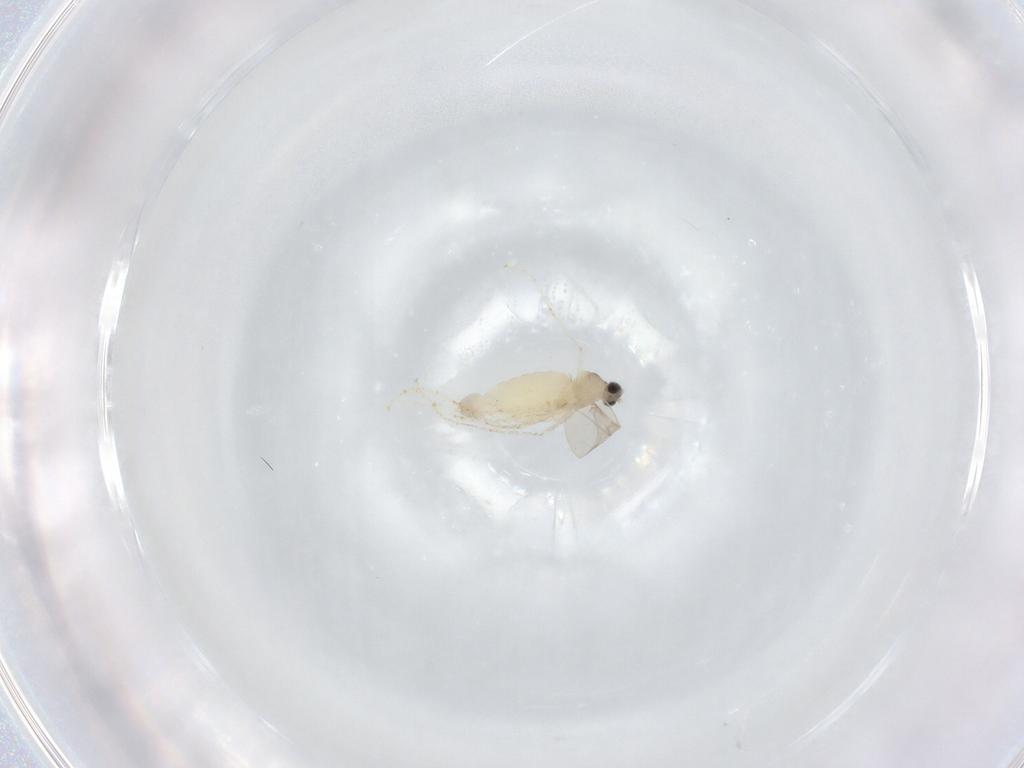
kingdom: Animalia
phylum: Arthropoda
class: Insecta
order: Diptera
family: Cecidomyiidae
